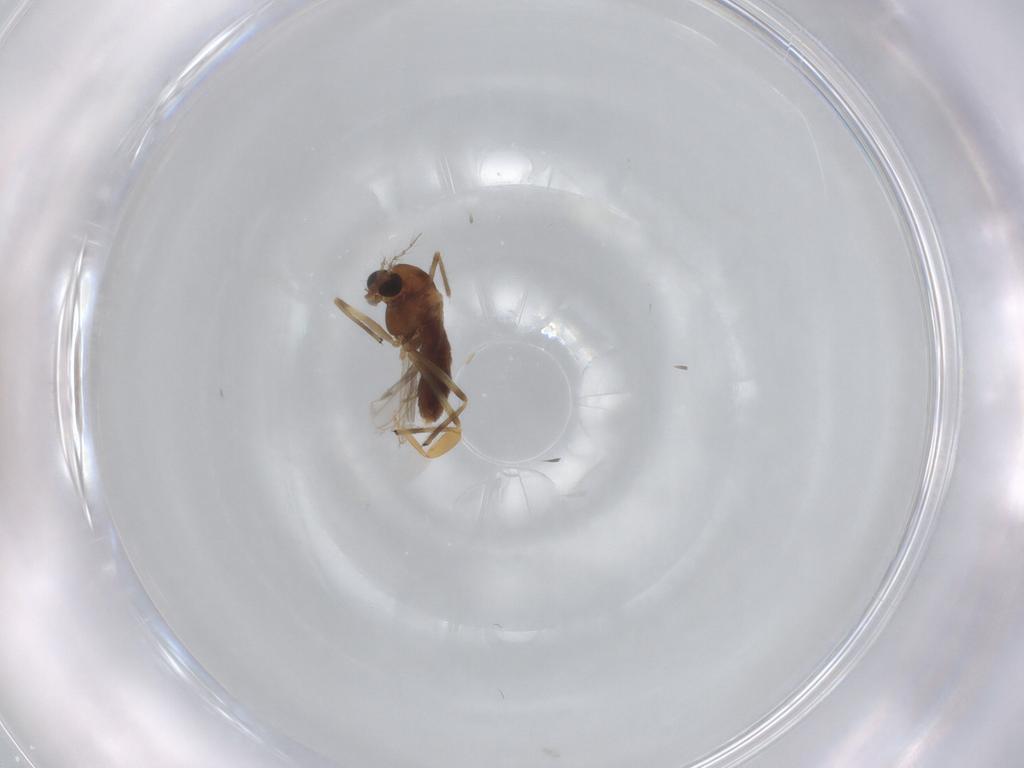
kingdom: Animalia
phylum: Arthropoda
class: Insecta
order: Diptera
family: Chironomidae
